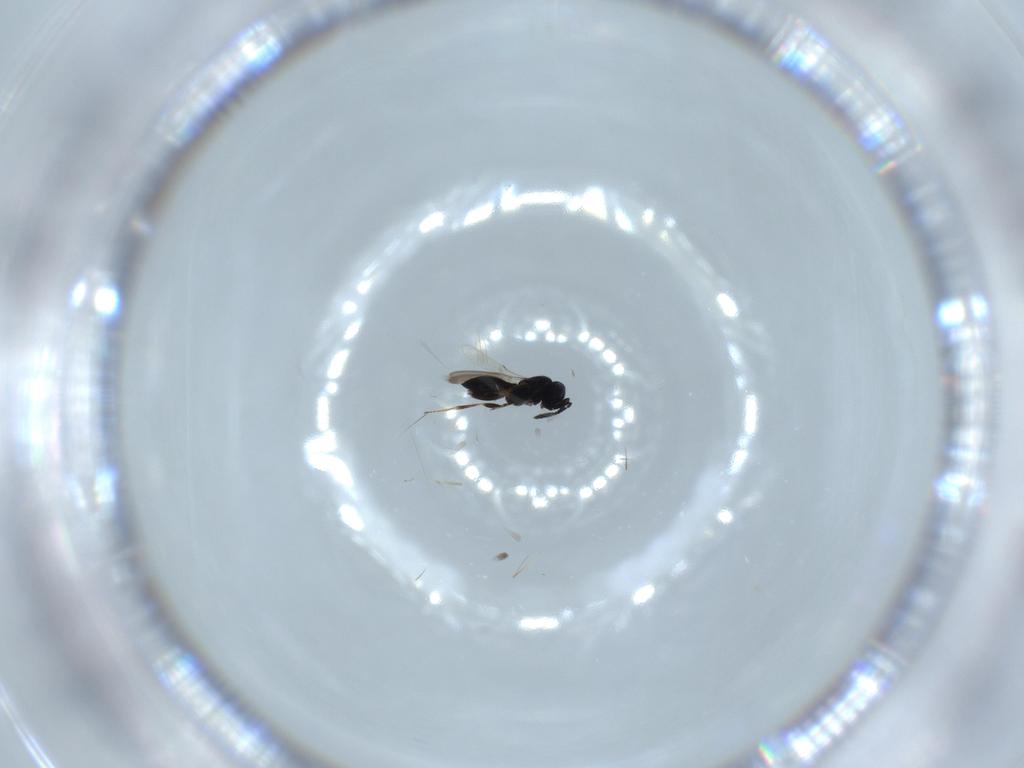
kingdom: Animalia
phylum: Arthropoda
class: Insecta
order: Hymenoptera
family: Scelionidae
